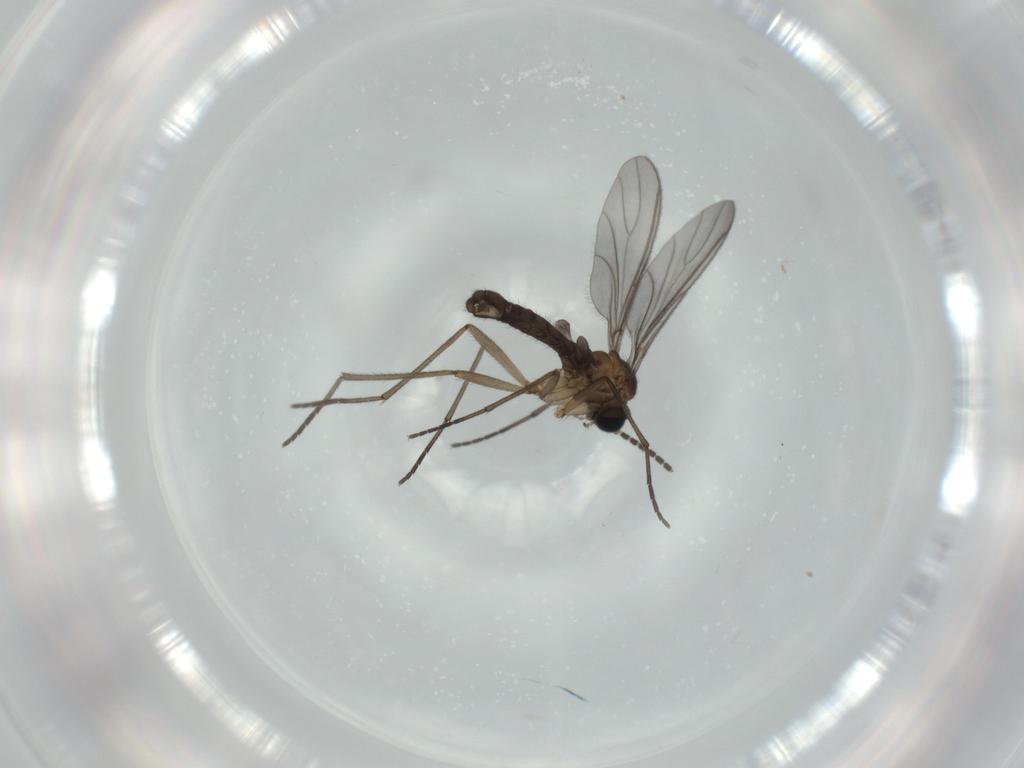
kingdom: Animalia
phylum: Arthropoda
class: Insecta
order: Diptera
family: Sciaridae
